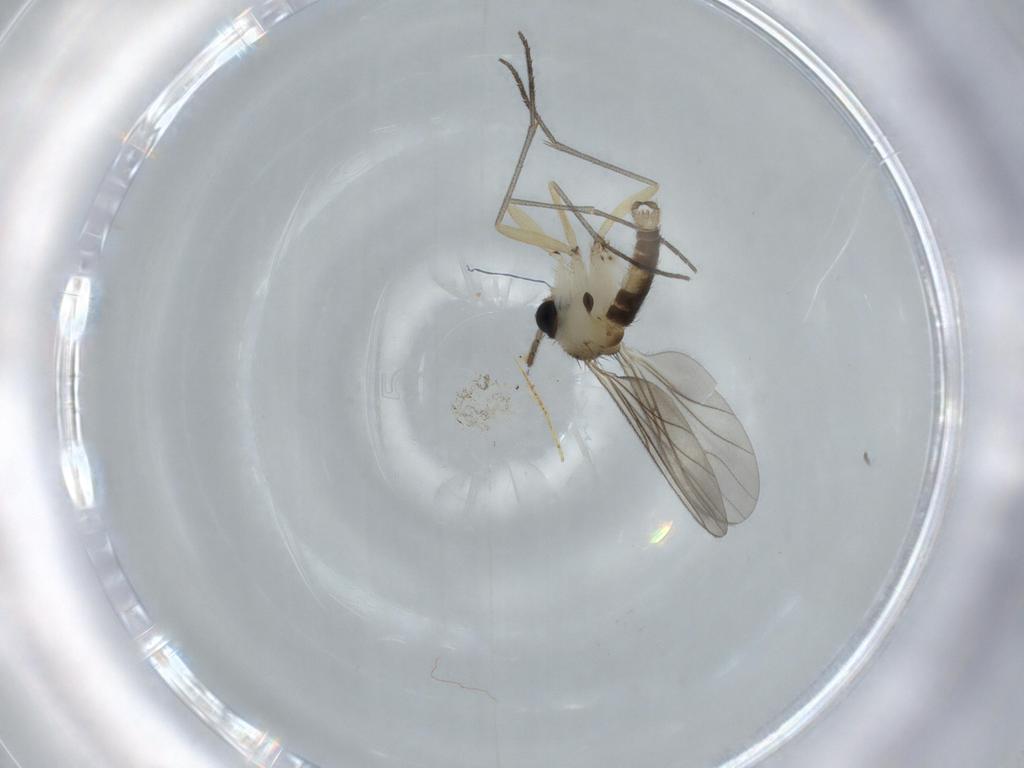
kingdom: Animalia
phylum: Arthropoda
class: Insecta
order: Diptera
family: Sciaridae
